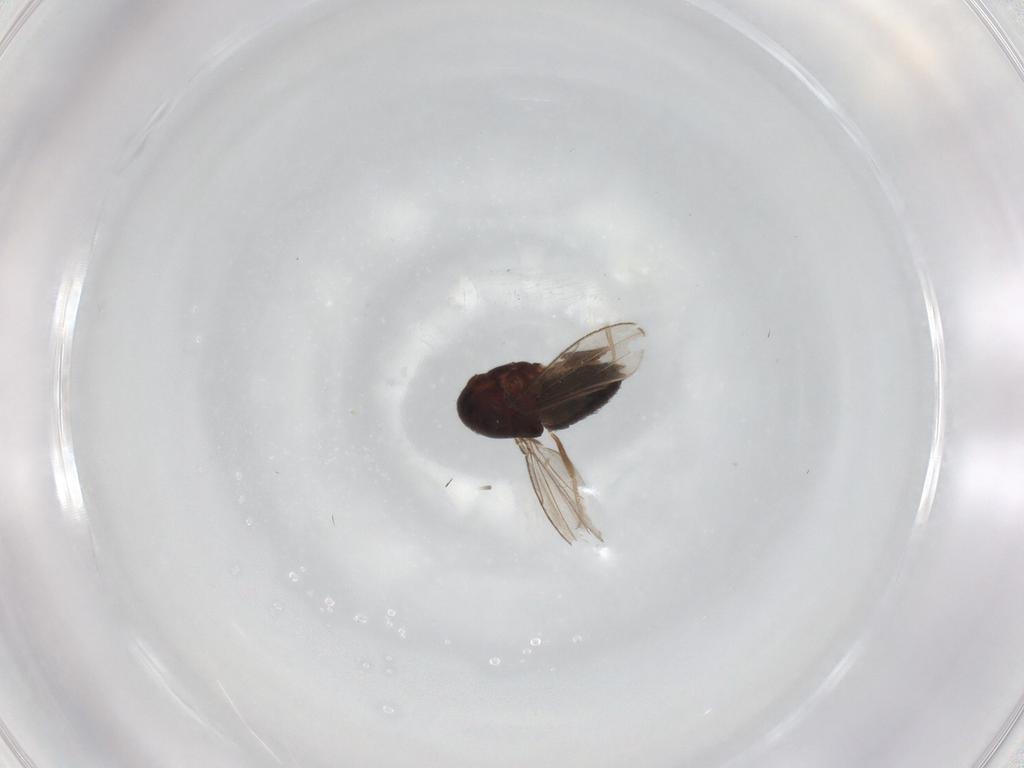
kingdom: Animalia
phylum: Arthropoda
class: Insecta
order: Diptera
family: Drosophilidae
